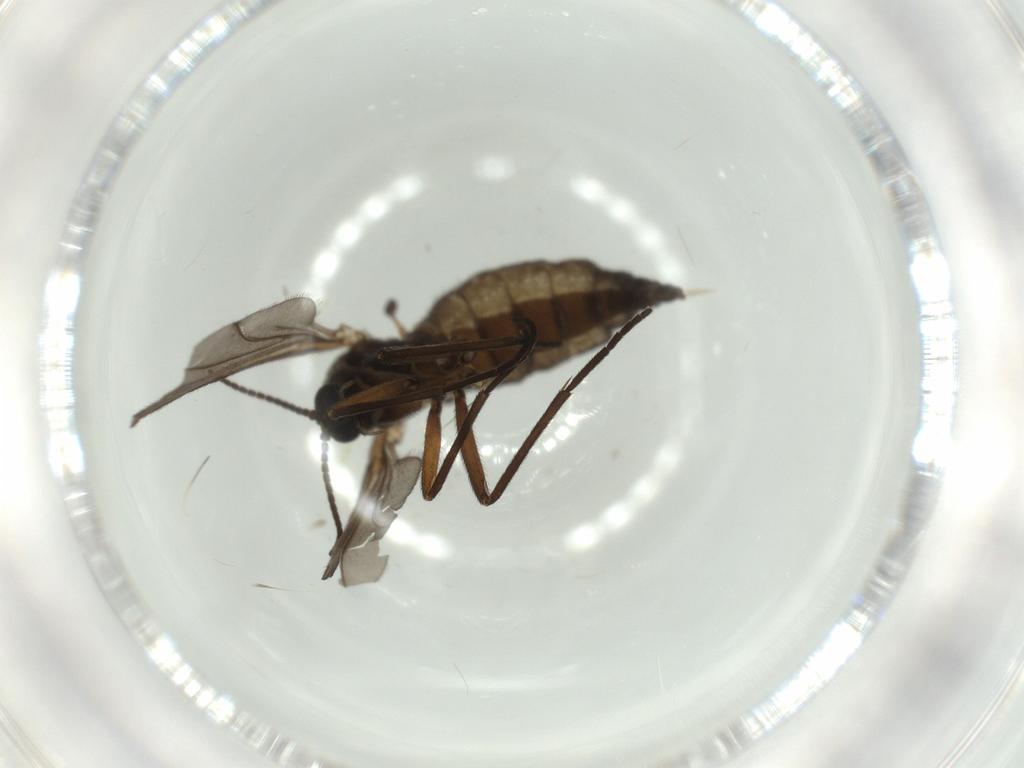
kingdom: Animalia
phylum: Arthropoda
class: Insecta
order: Diptera
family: Sciaridae
